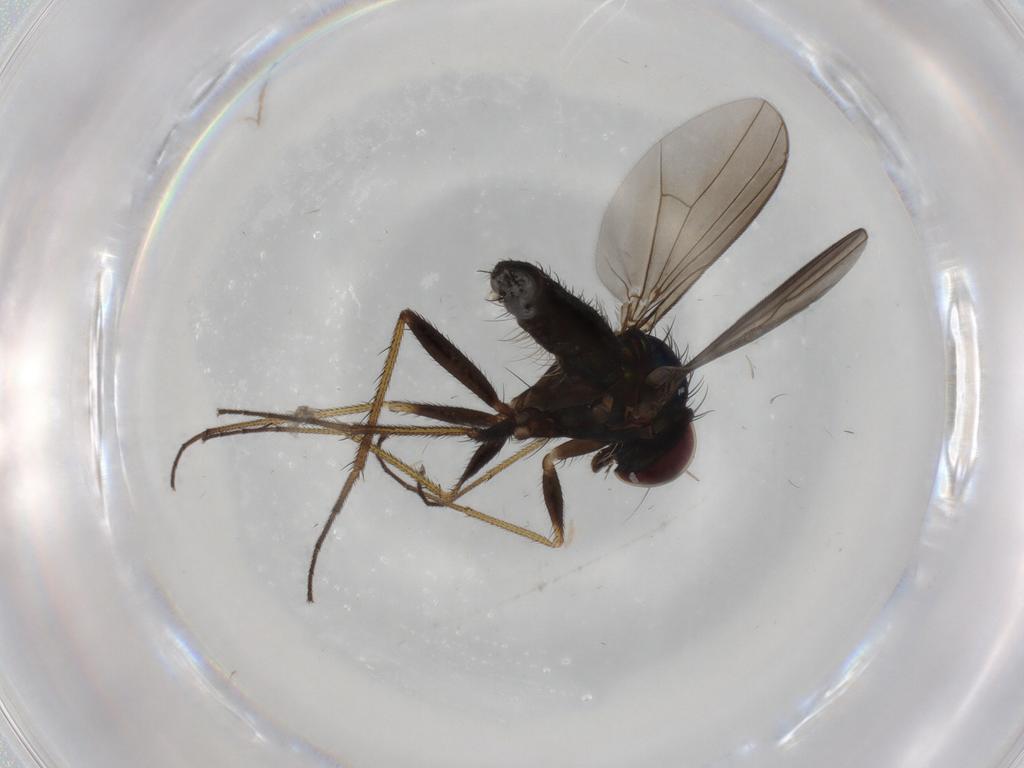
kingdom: Animalia
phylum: Arthropoda
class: Insecta
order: Diptera
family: Dolichopodidae
